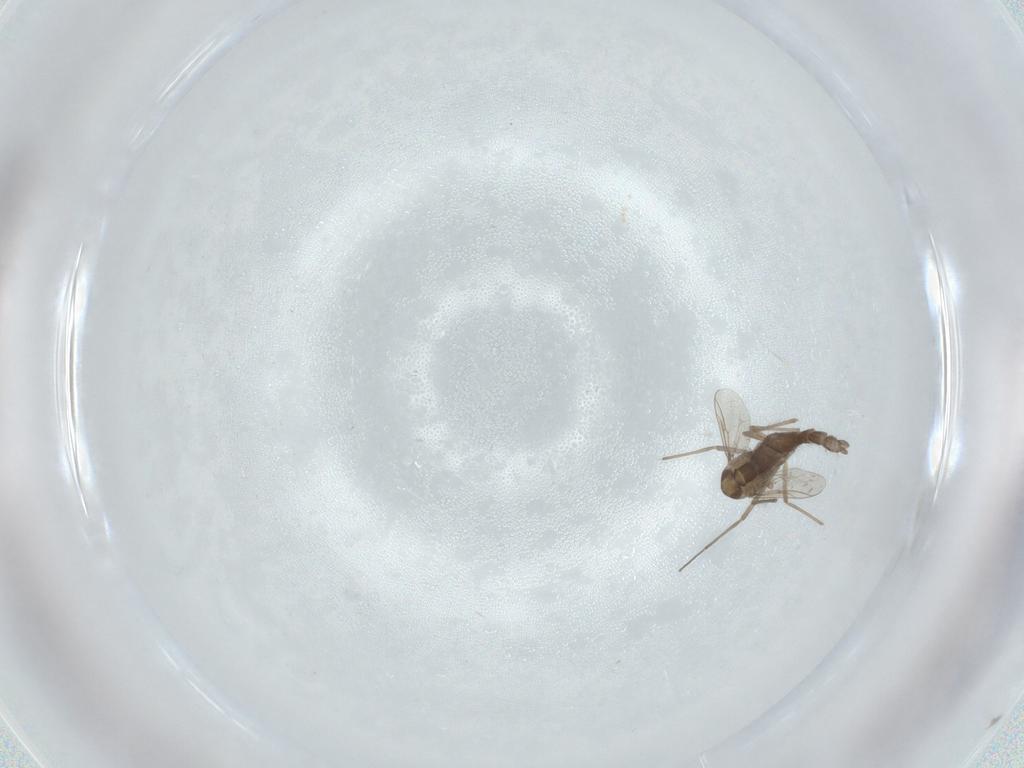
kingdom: Animalia
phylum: Arthropoda
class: Insecta
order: Diptera
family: Chironomidae
